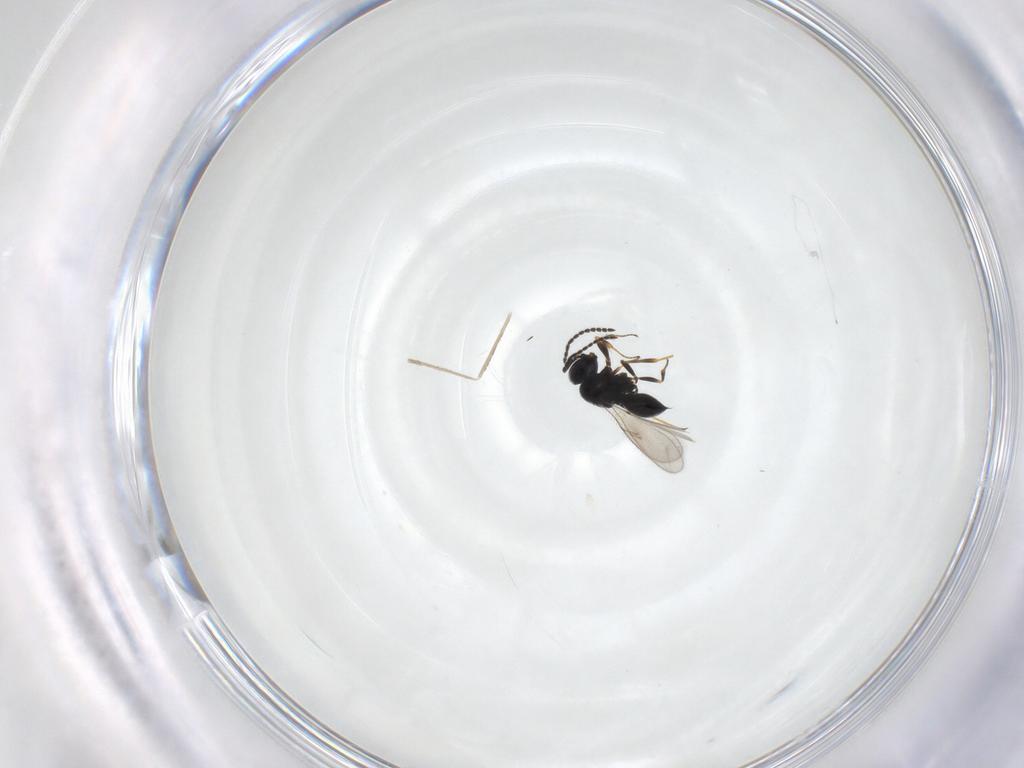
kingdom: Animalia
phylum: Arthropoda
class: Insecta
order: Hymenoptera
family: Scelionidae
